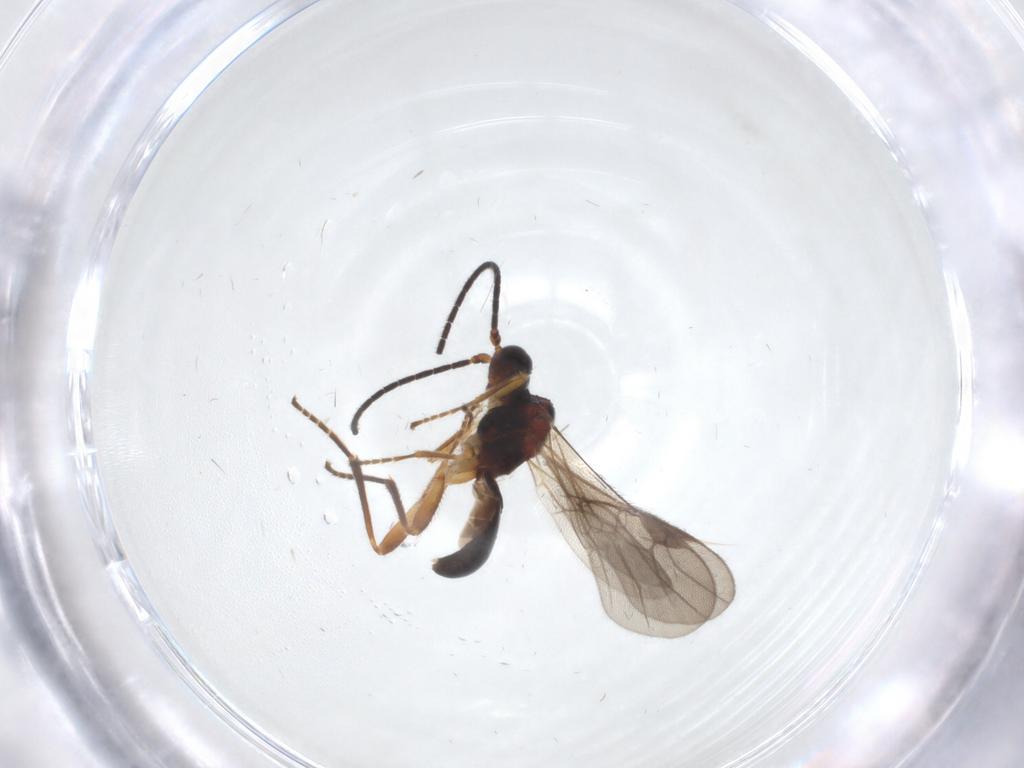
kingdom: Animalia
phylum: Arthropoda
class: Insecta
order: Hymenoptera
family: Braconidae
